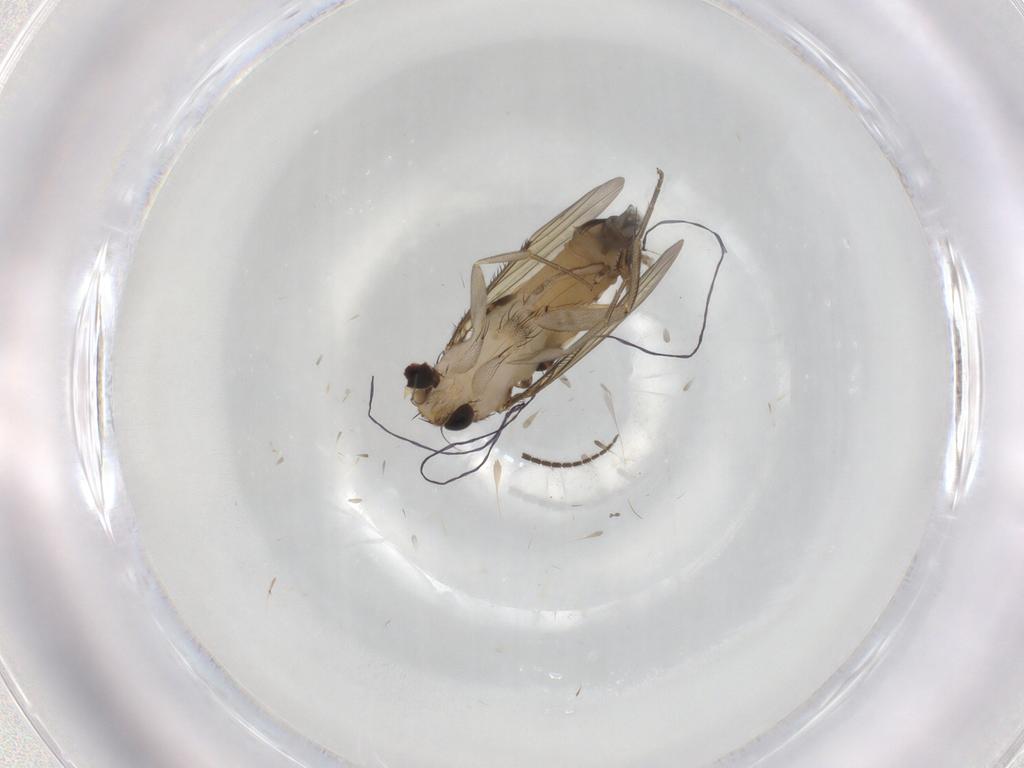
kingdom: Animalia
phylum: Arthropoda
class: Insecta
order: Diptera
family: Phoridae
